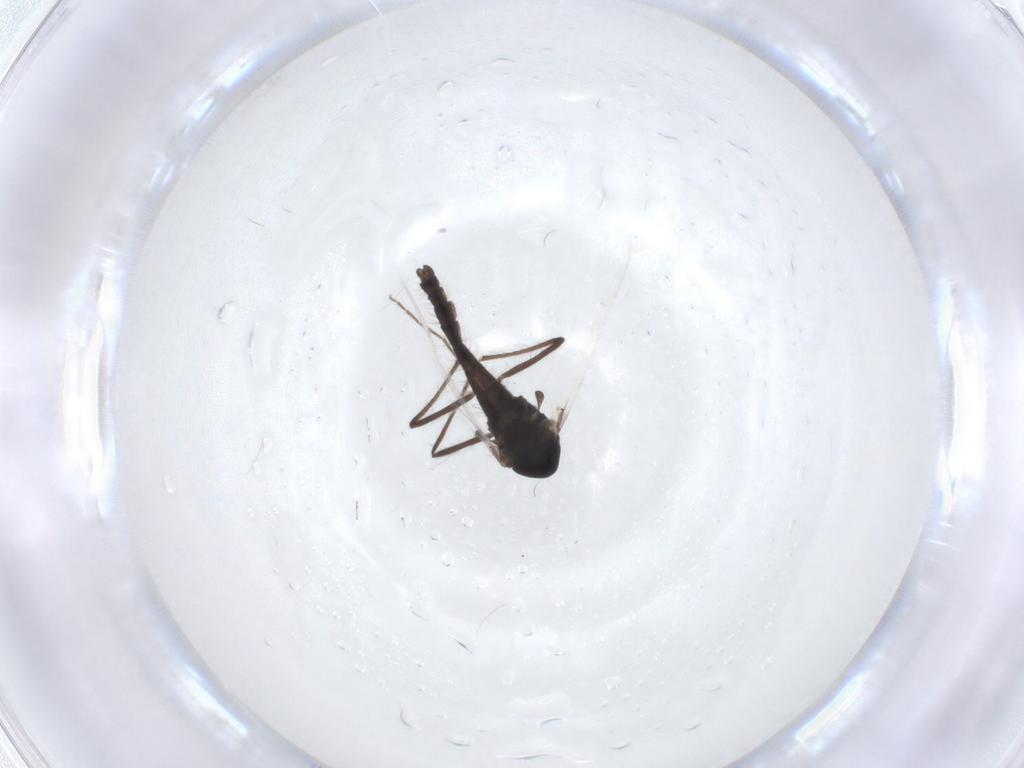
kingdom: Animalia
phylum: Arthropoda
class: Insecta
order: Diptera
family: Chironomidae
